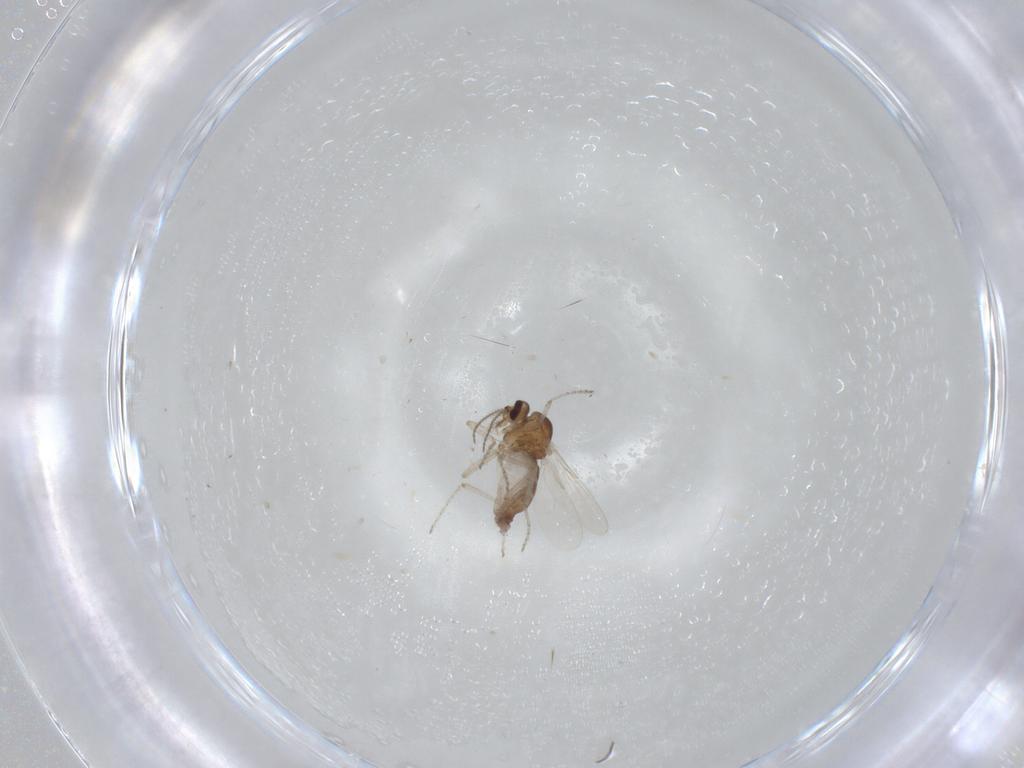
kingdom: Animalia
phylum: Arthropoda
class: Insecta
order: Diptera
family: Ceratopogonidae
